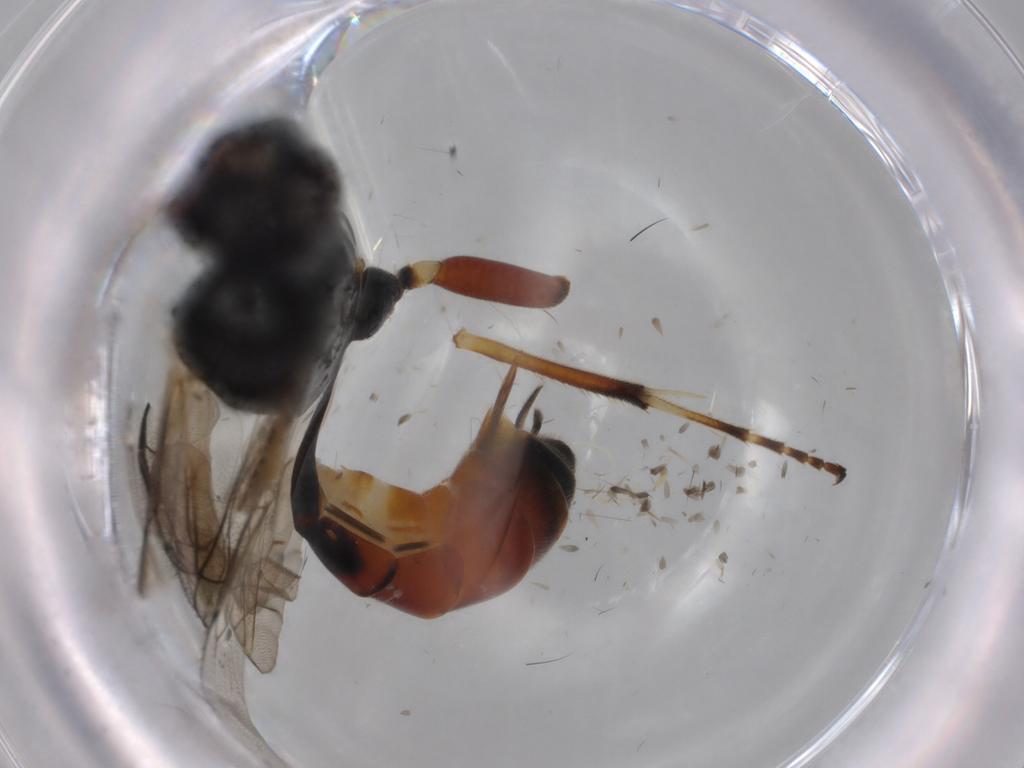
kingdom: Animalia
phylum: Arthropoda
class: Insecta
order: Hymenoptera
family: Ichneumonidae
